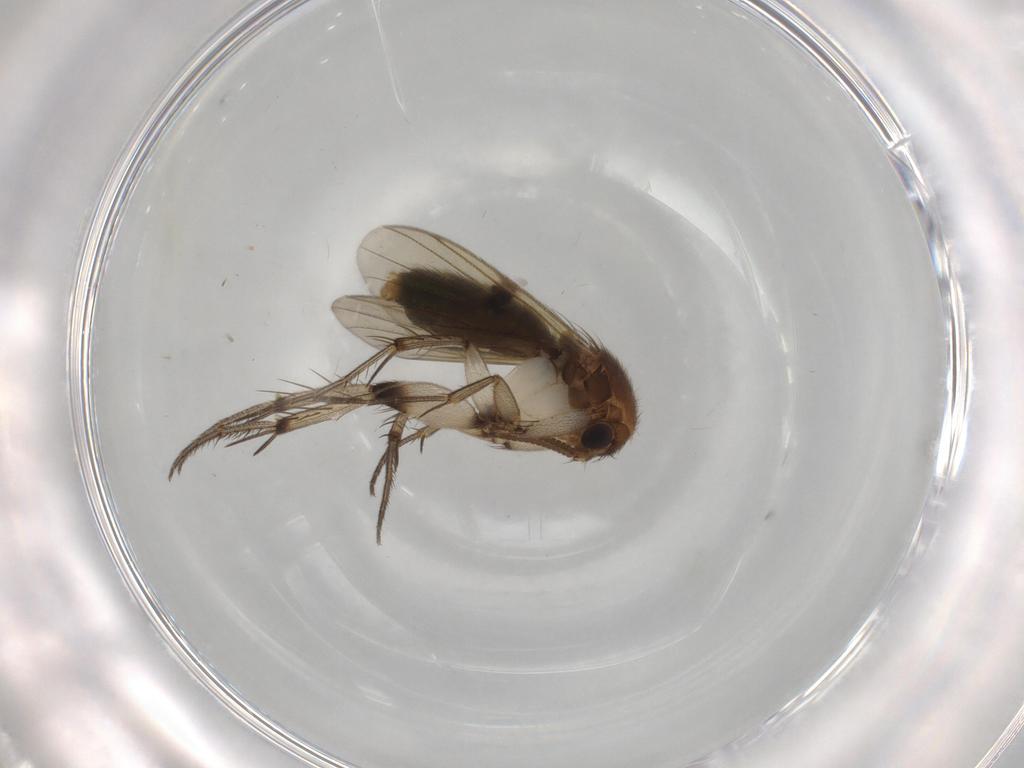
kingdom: Animalia
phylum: Arthropoda
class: Insecta
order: Diptera
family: Mycetophilidae
